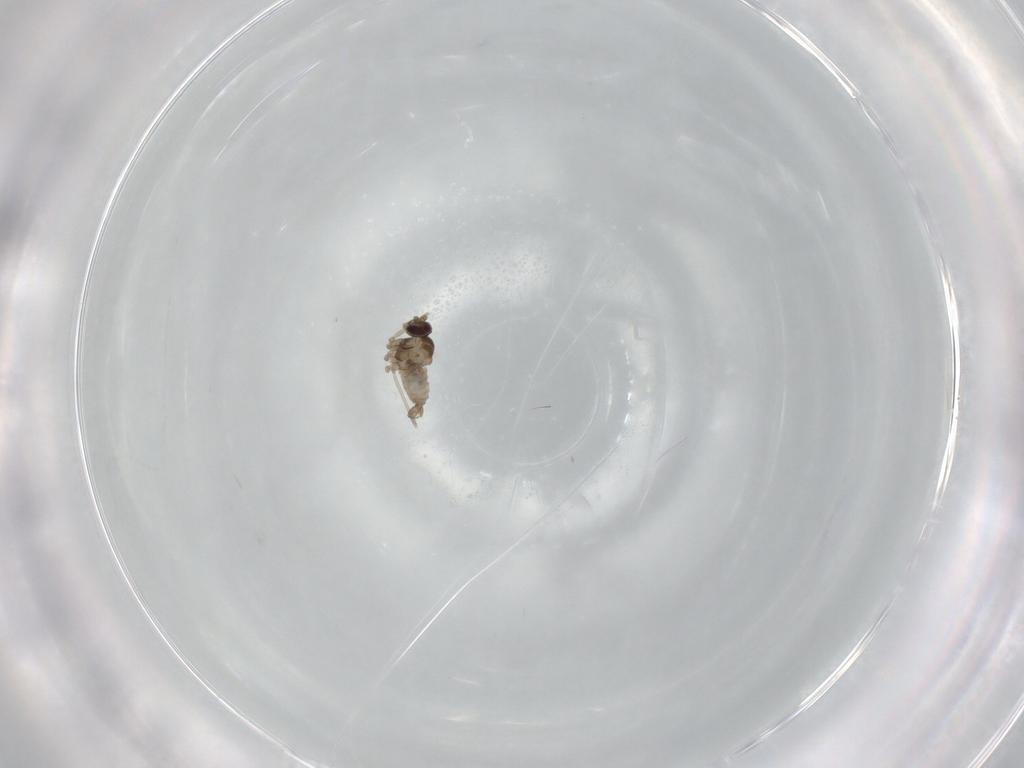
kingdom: Animalia
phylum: Arthropoda
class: Insecta
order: Diptera
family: Cecidomyiidae
